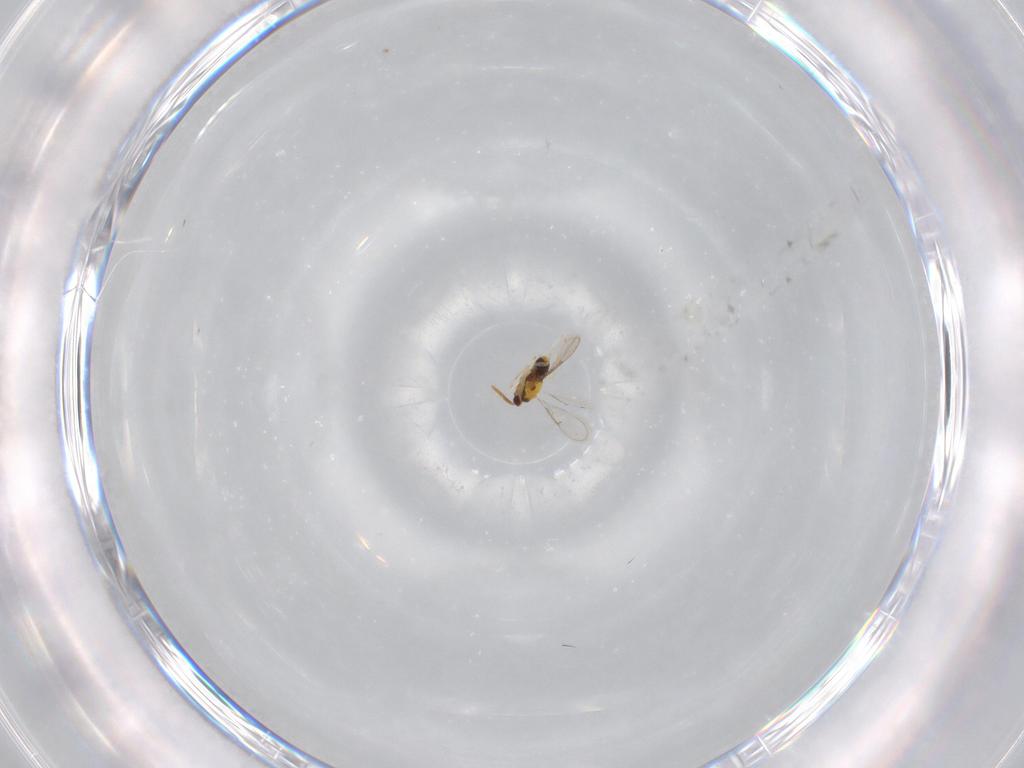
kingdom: Animalia
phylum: Arthropoda
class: Insecta
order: Hymenoptera
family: Aphelinidae
